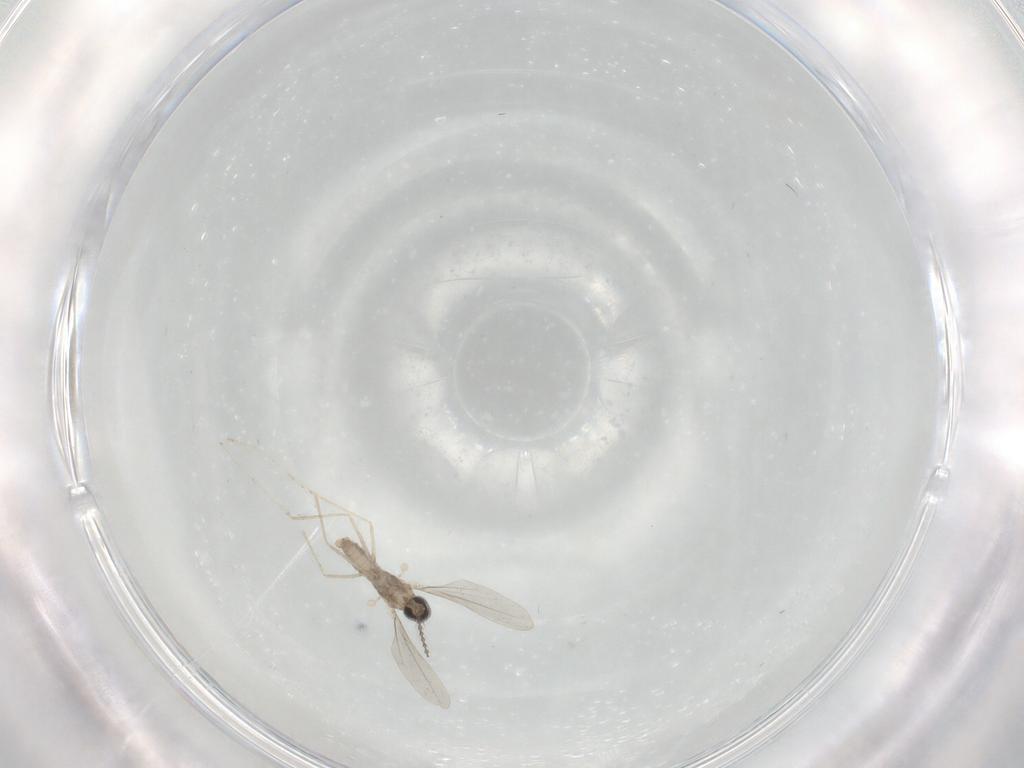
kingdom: Animalia
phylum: Arthropoda
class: Insecta
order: Diptera
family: Cecidomyiidae
